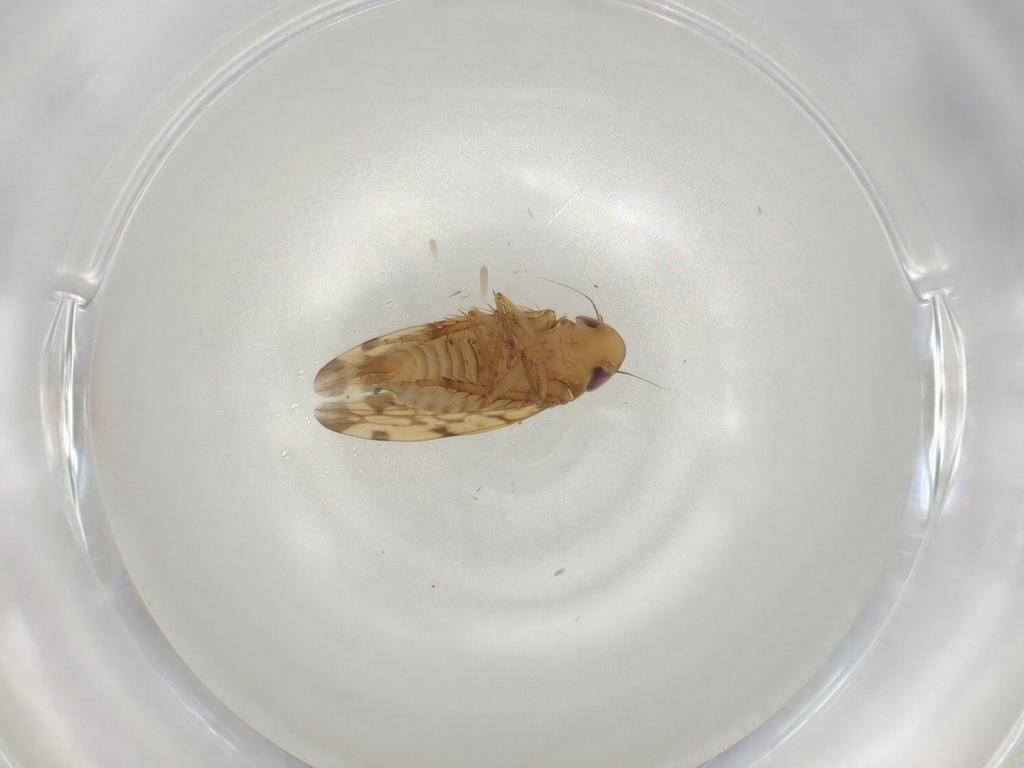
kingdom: Animalia
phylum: Arthropoda
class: Insecta
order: Hemiptera
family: Cicadellidae
